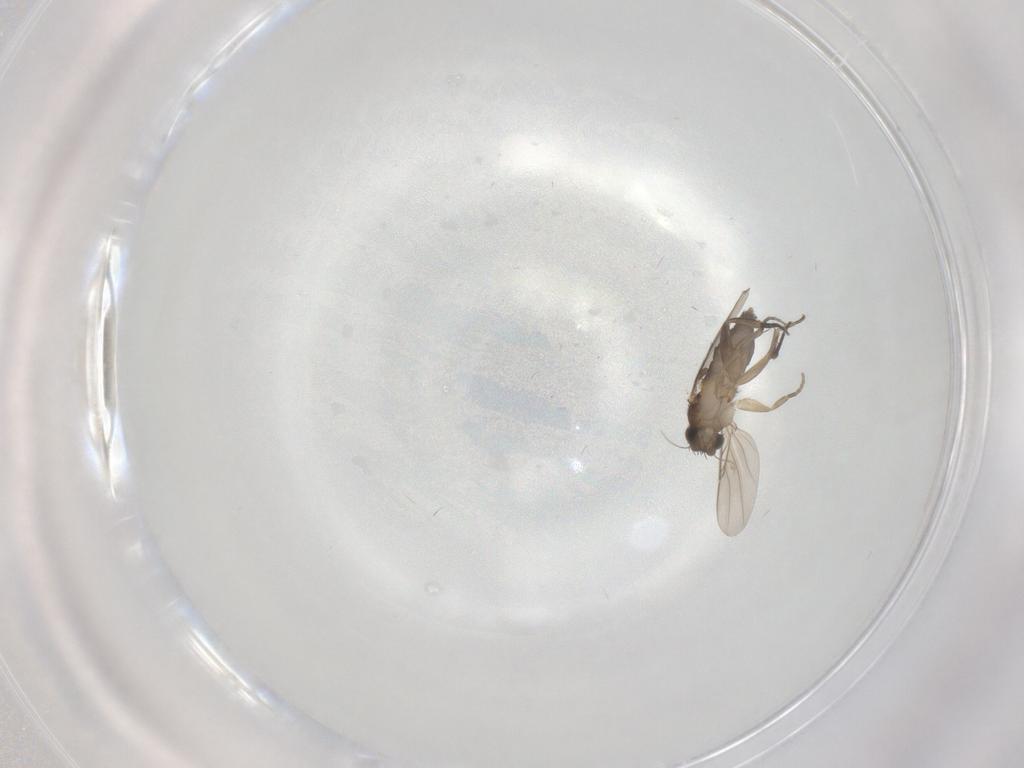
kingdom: Animalia
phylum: Arthropoda
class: Insecta
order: Diptera
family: Phoridae
